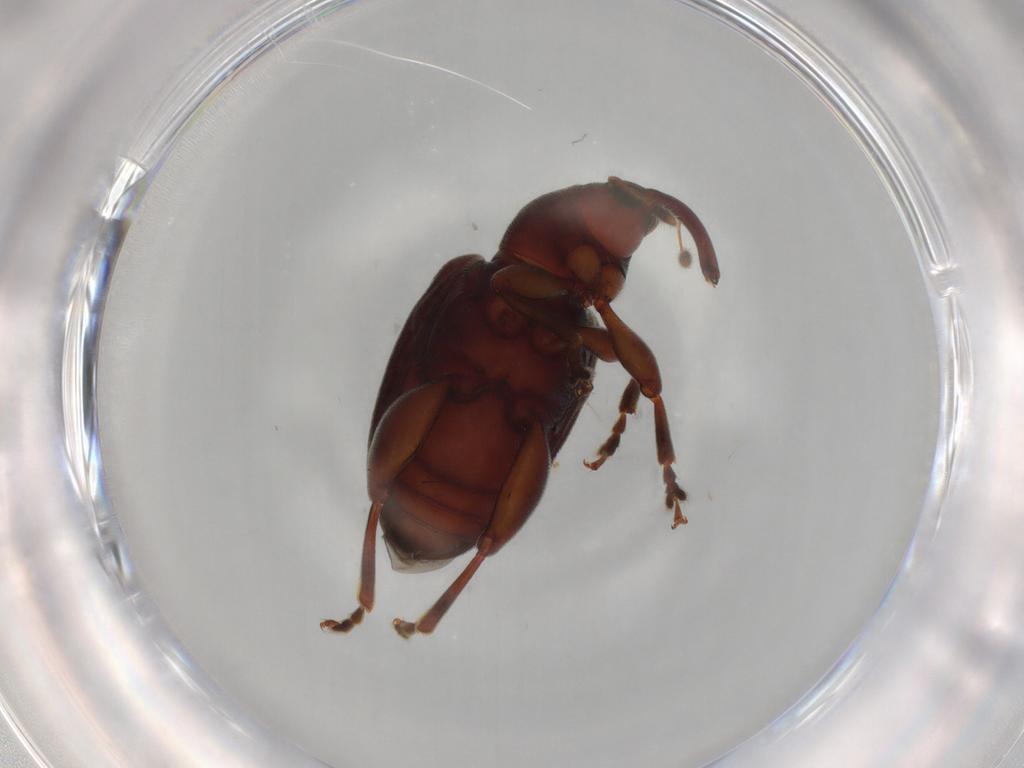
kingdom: Animalia
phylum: Arthropoda
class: Insecta
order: Coleoptera
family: Curculionidae
